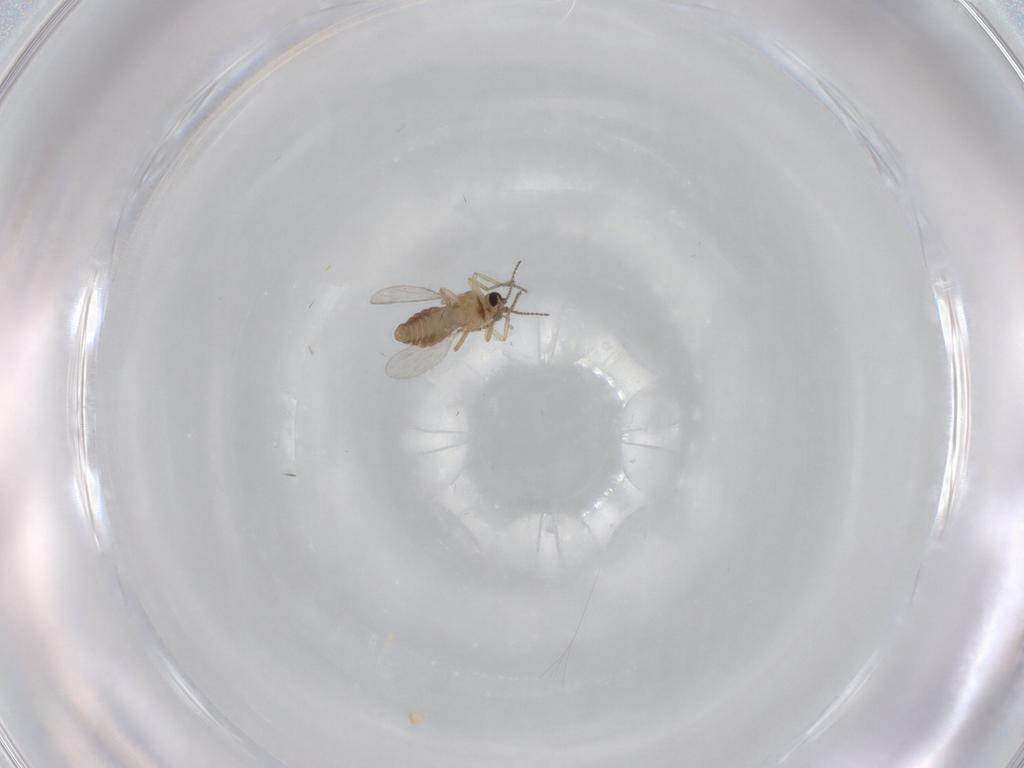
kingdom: Animalia
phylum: Arthropoda
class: Insecta
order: Diptera
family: Ceratopogonidae
